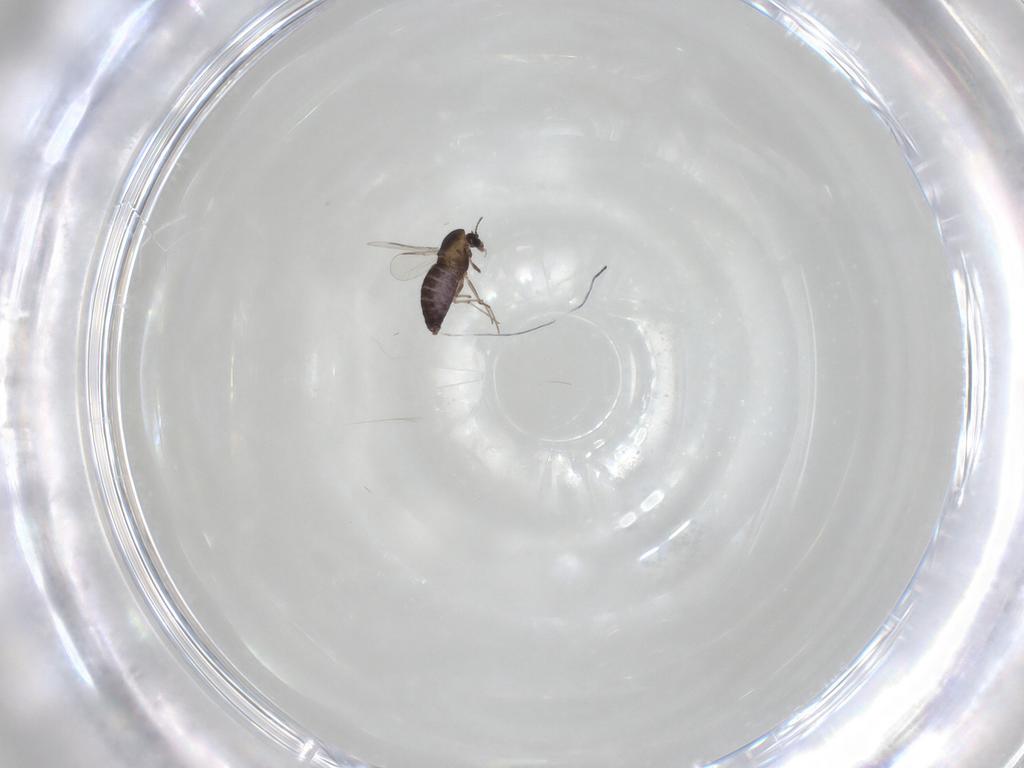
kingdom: Animalia
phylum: Arthropoda
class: Insecta
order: Diptera
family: Chironomidae
